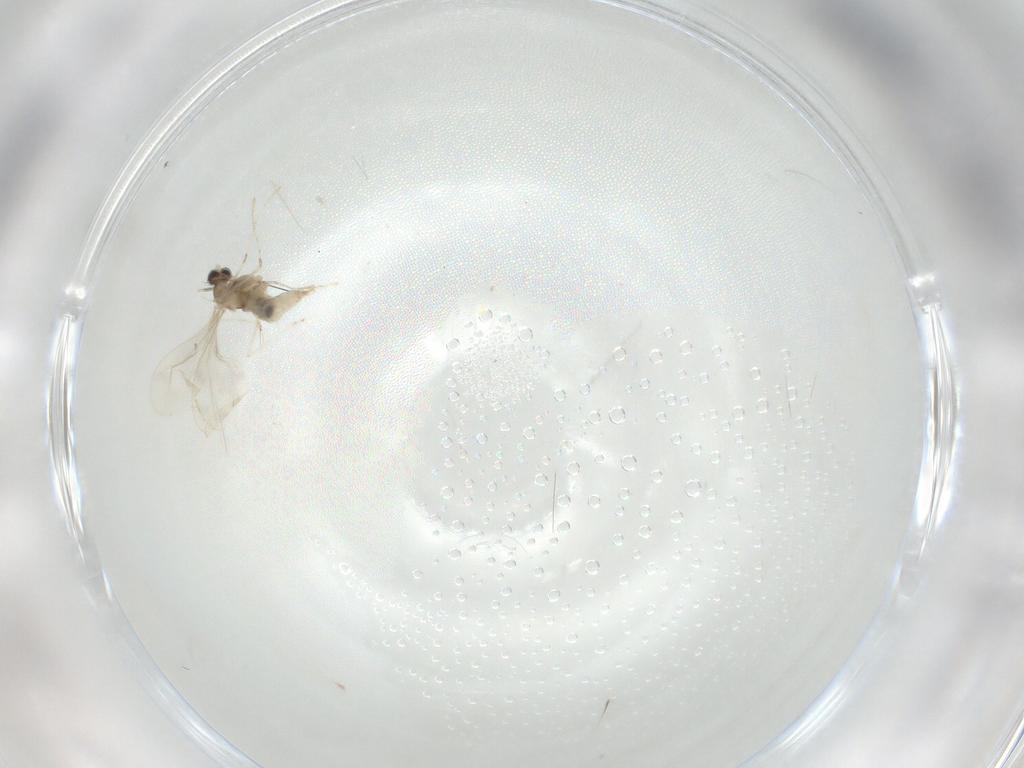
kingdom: Animalia
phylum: Arthropoda
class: Insecta
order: Diptera
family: Cecidomyiidae
